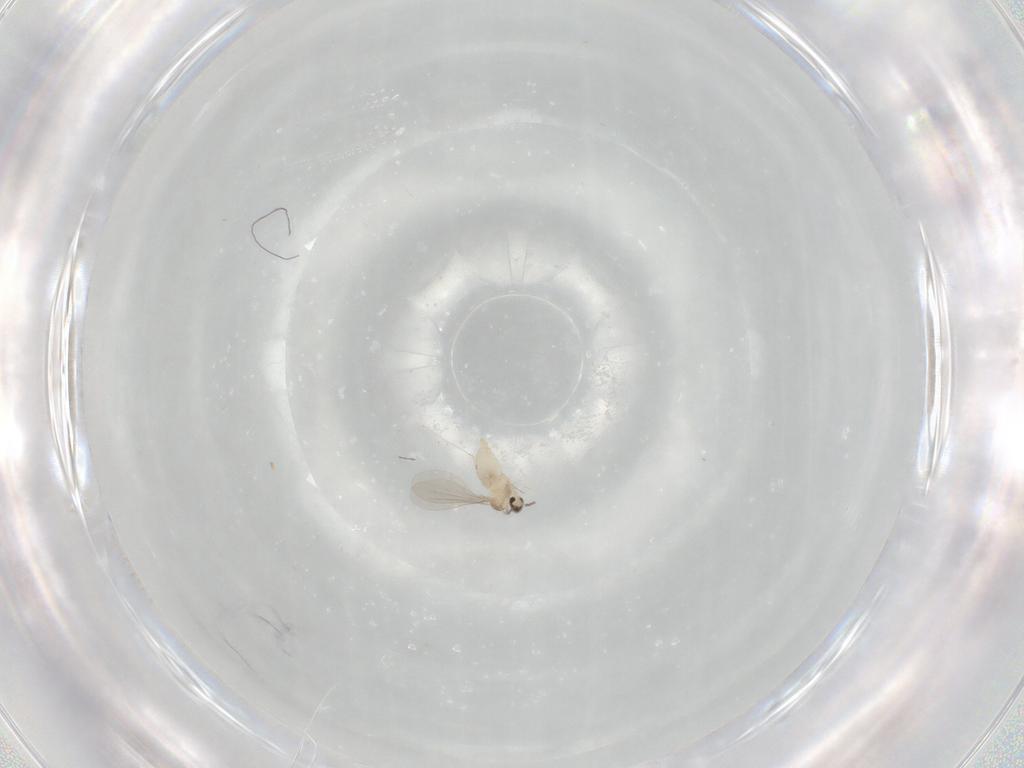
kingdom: Animalia
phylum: Arthropoda
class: Insecta
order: Diptera
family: Cecidomyiidae
